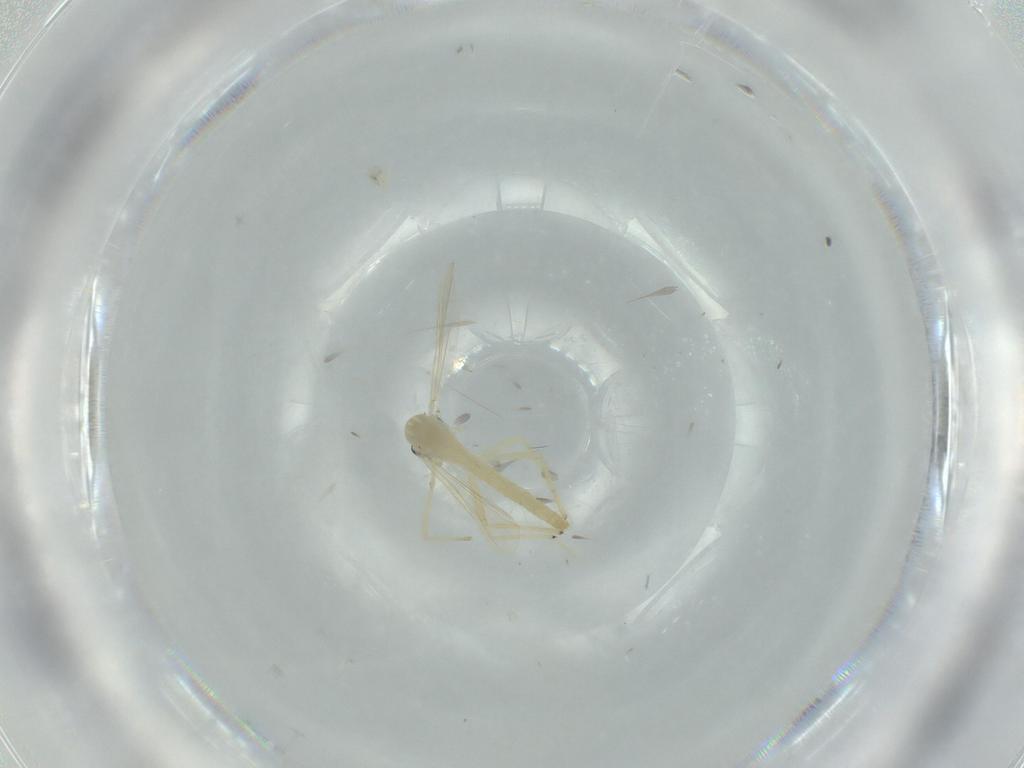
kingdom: Animalia
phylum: Arthropoda
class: Insecta
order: Diptera
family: Chironomidae
